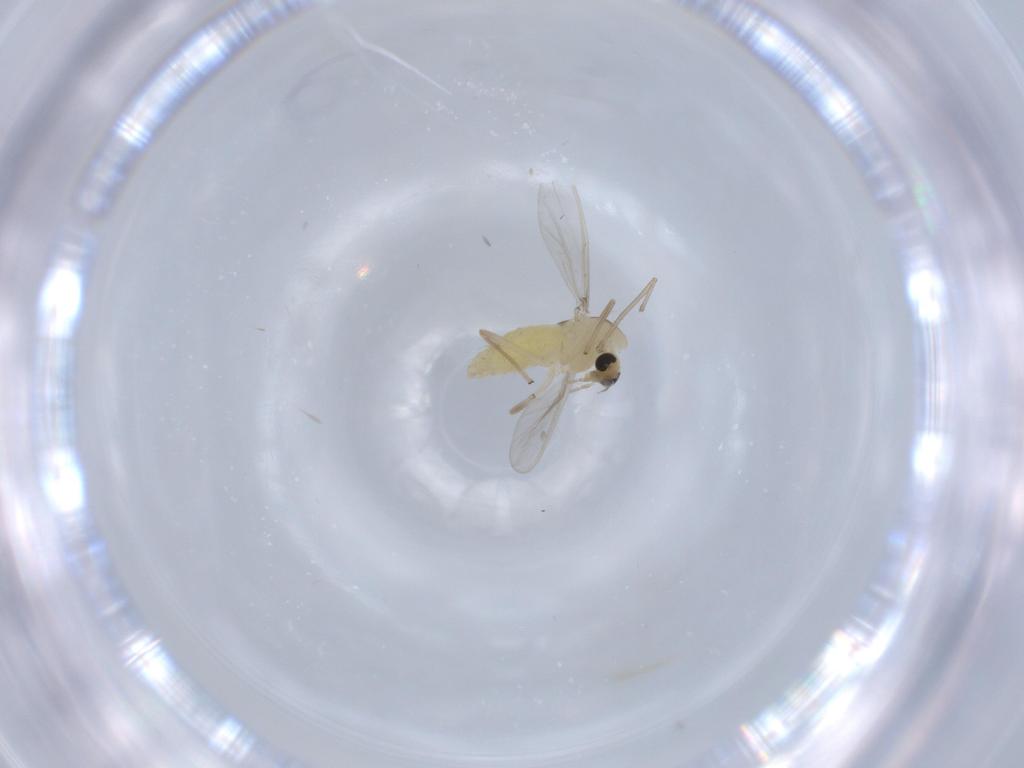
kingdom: Animalia
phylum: Arthropoda
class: Insecta
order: Diptera
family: Chironomidae
